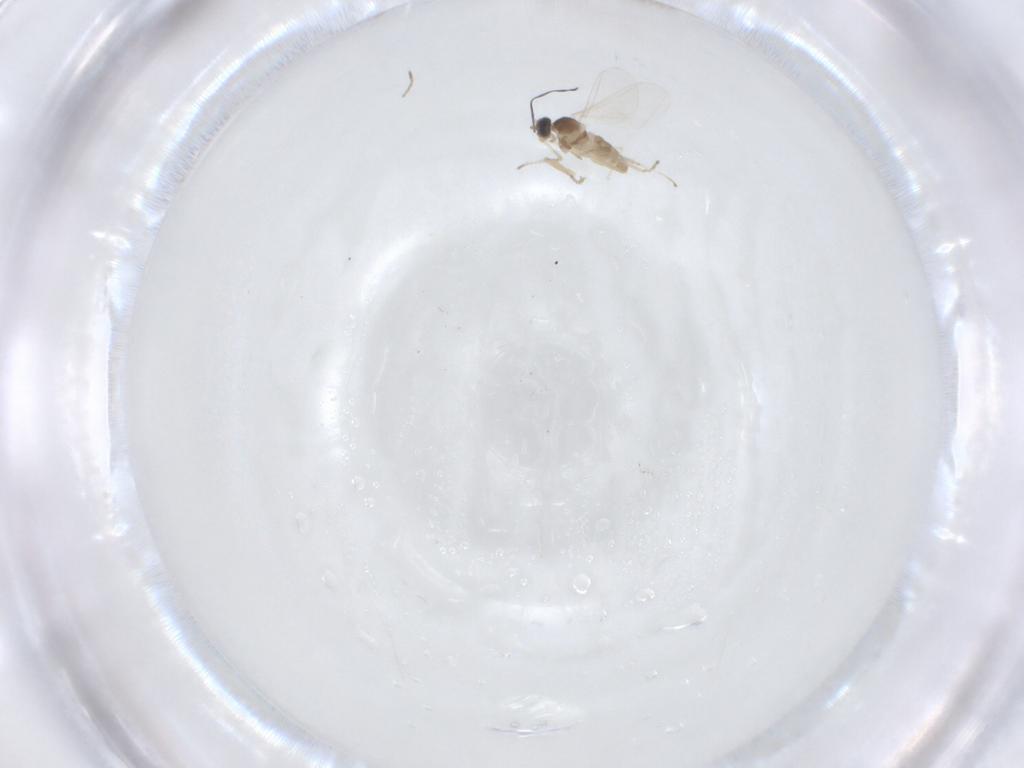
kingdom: Animalia
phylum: Arthropoda
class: Insecta
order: Diptera
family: Cecidomyiidae
